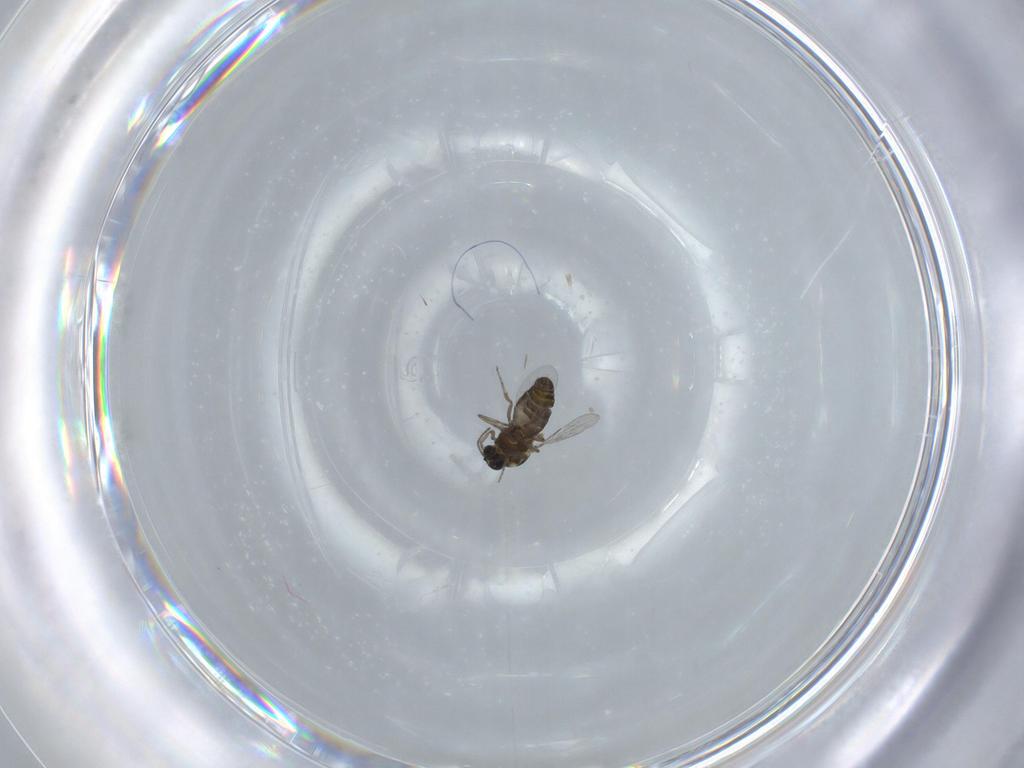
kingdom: Animalia
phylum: Arthropoda
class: Insecta
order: Diptera
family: Phoridae
